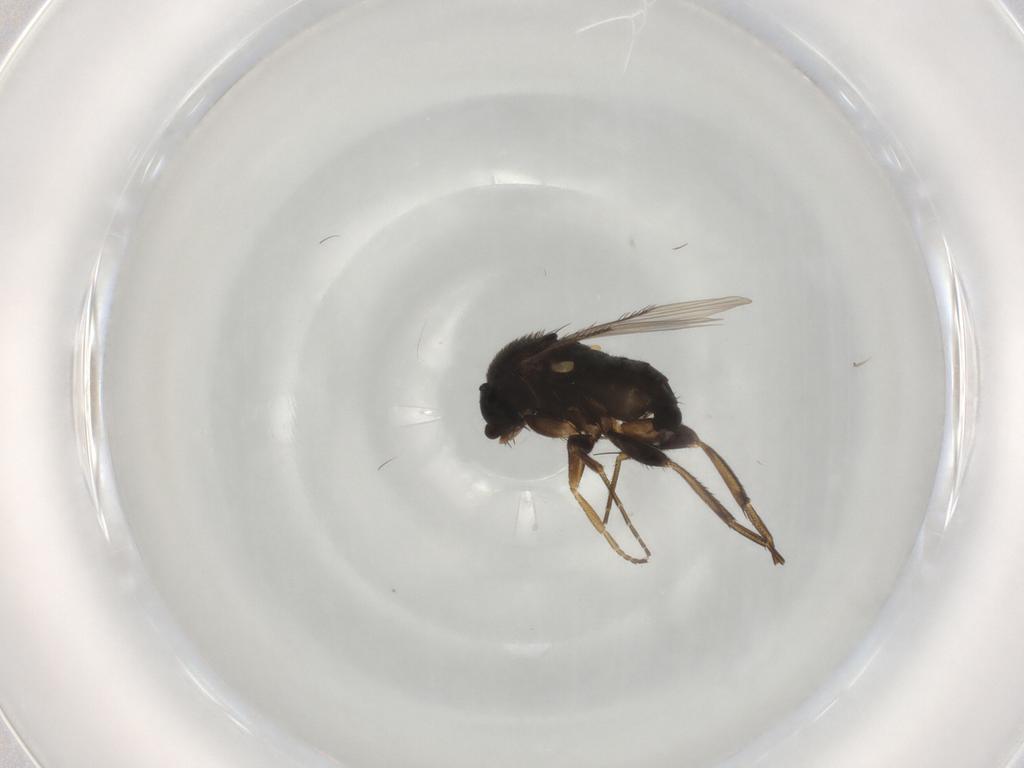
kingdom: Animalia
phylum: Arthropoda
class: Insecta
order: Diptera
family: Phoridae
